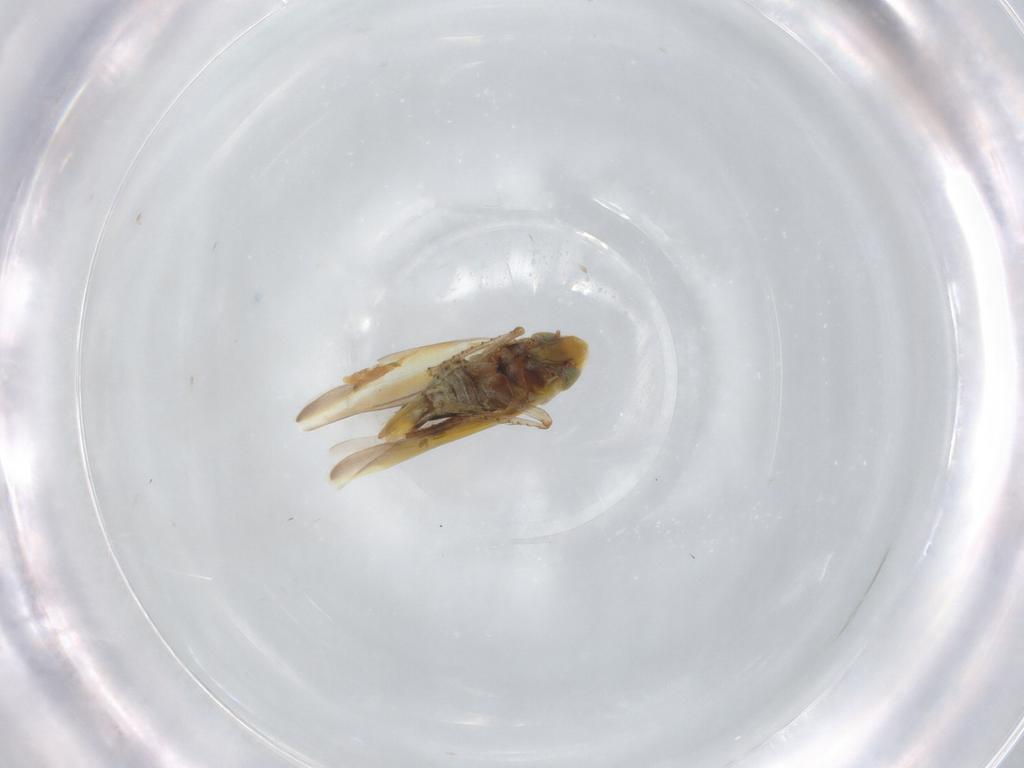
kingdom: Animalia
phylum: Arthropoda
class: Insecta
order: Hemiptera
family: Cicadellidae
